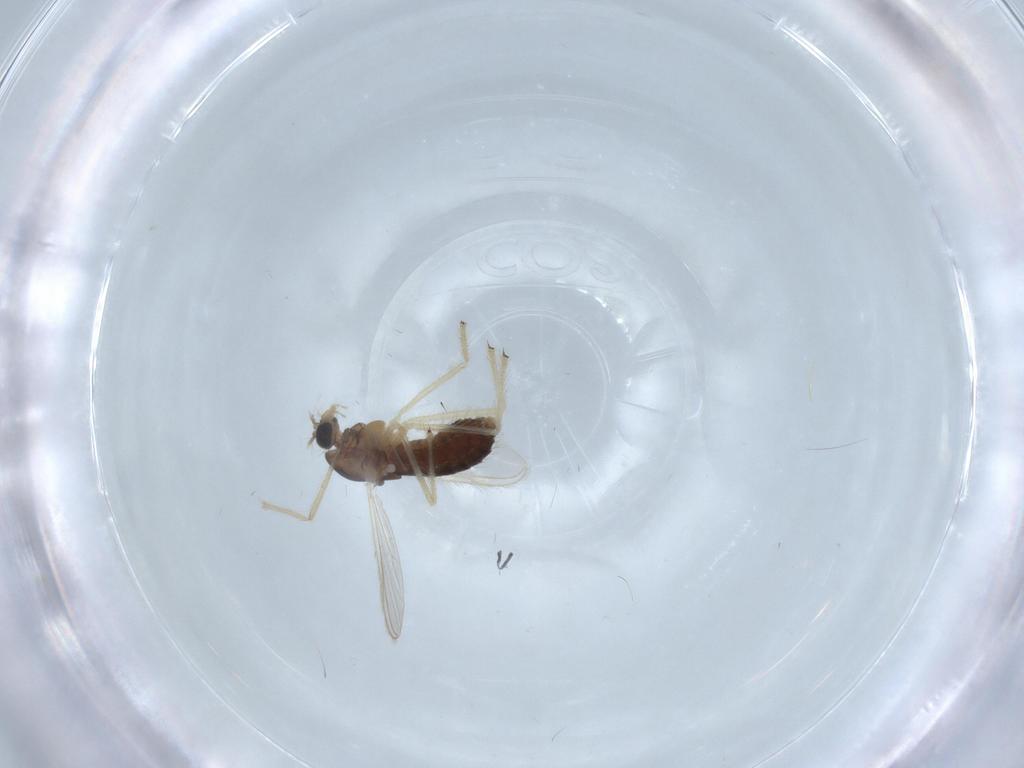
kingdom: Animalia
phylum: Arthropoda
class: Insecta
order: Diptera
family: Chironomidae
